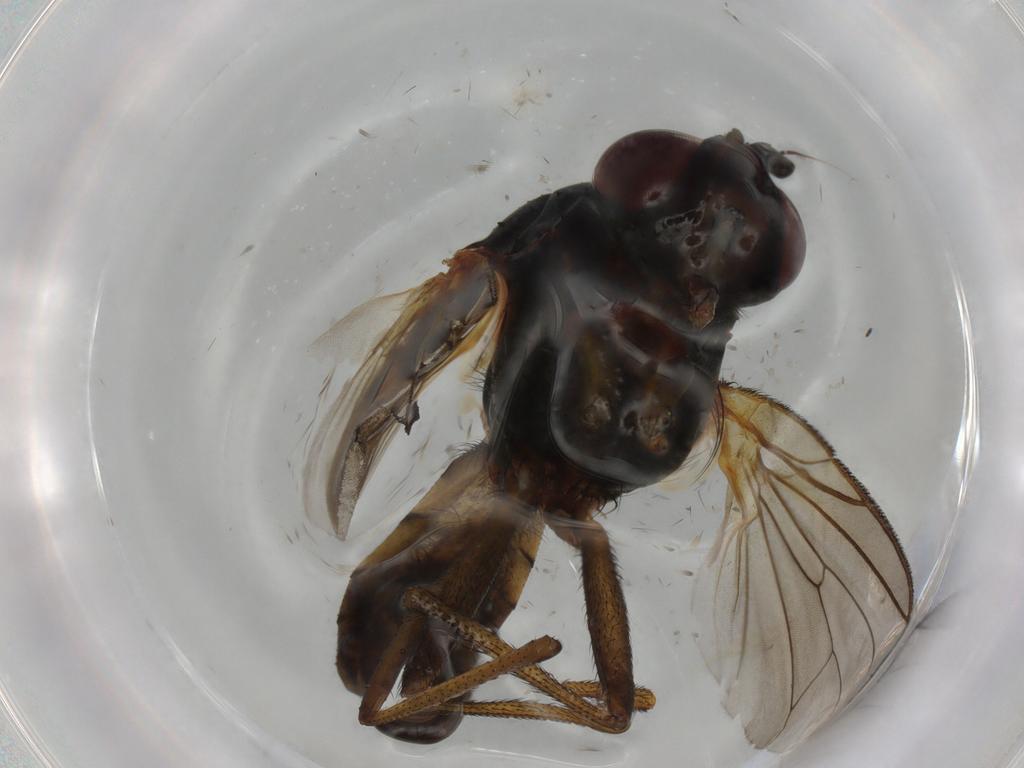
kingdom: Animalia
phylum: Arthropoda
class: Insecta
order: Diptera
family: Anthomyiidae
